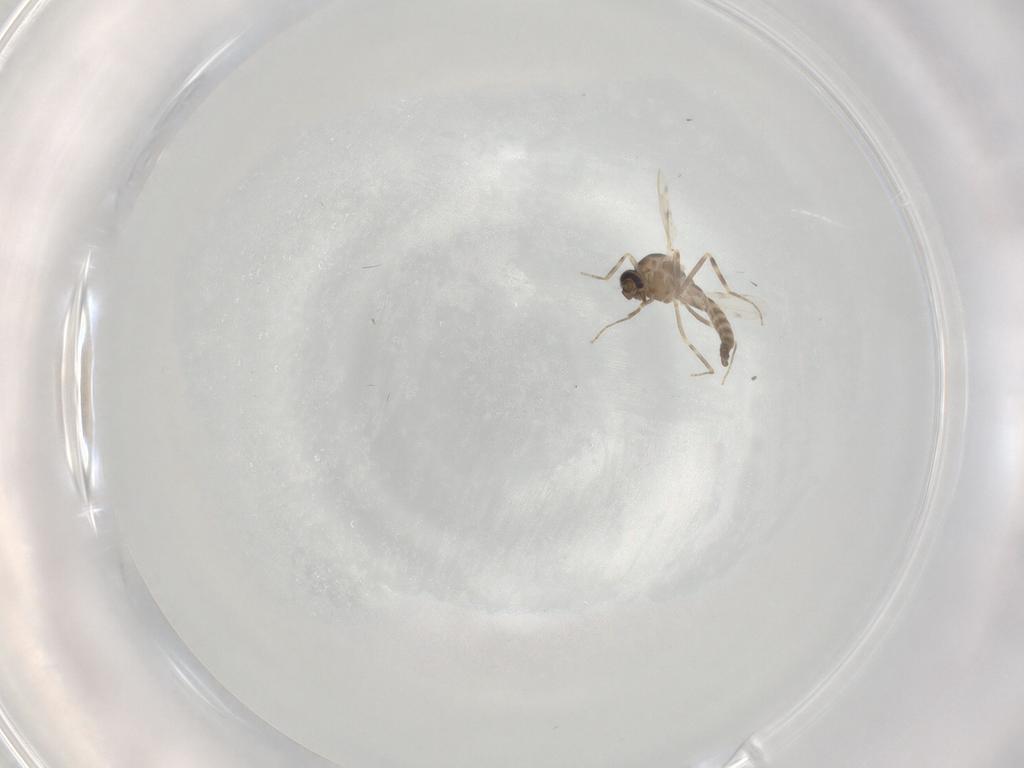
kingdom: Animalia
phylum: Arthropoda
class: Insecta
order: Diptera
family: Ceratopogonidae
